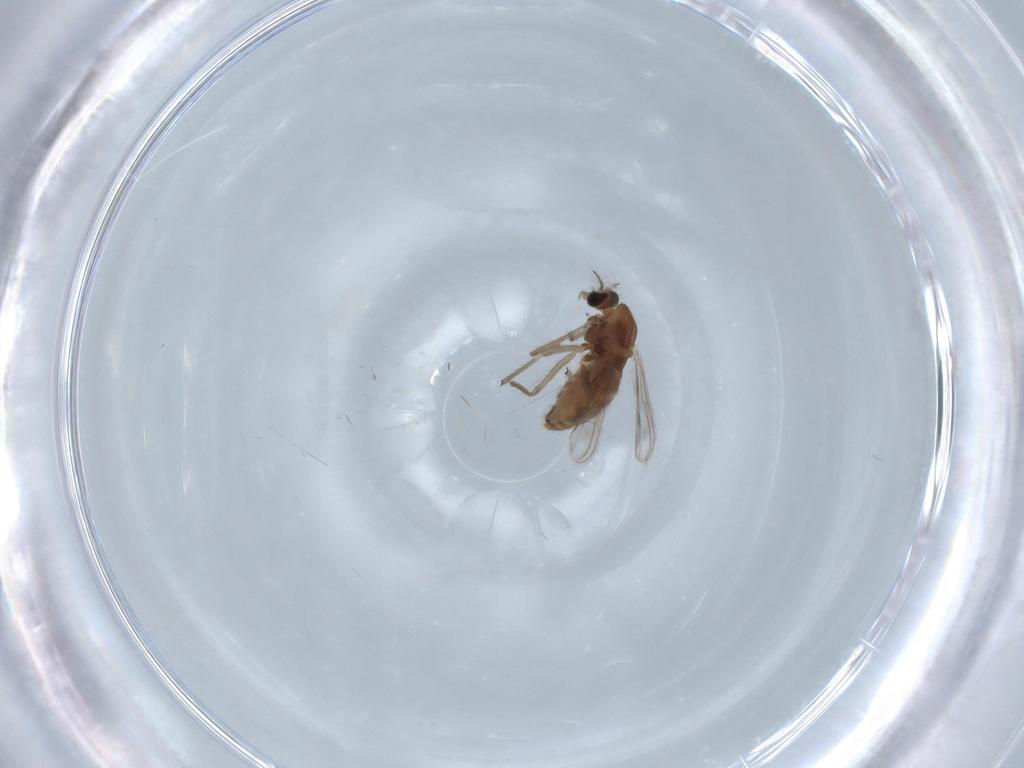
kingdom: Animalia
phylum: Arthropoda
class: Insecta
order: Diptera
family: Chironomidae
